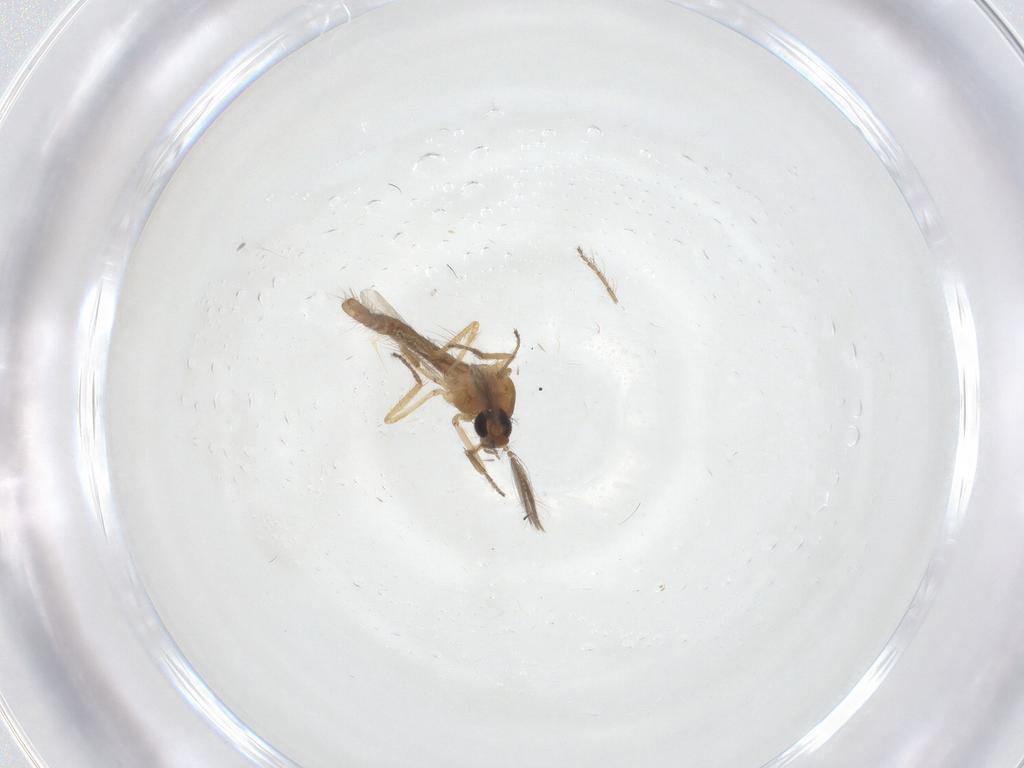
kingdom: Animalia
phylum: Arthropoda
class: Insecta
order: Diptera
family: Ceratopogonidae
